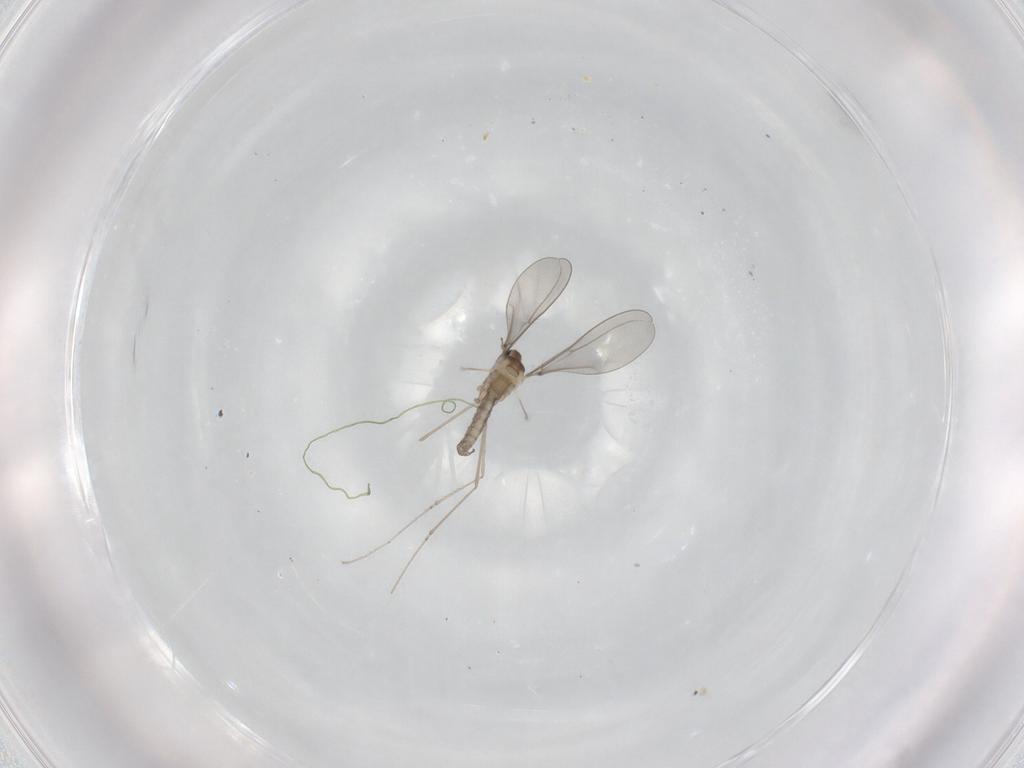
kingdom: Animalia
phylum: Arthropoda
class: Insecta
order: Diptera
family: Cecidomyiidae
